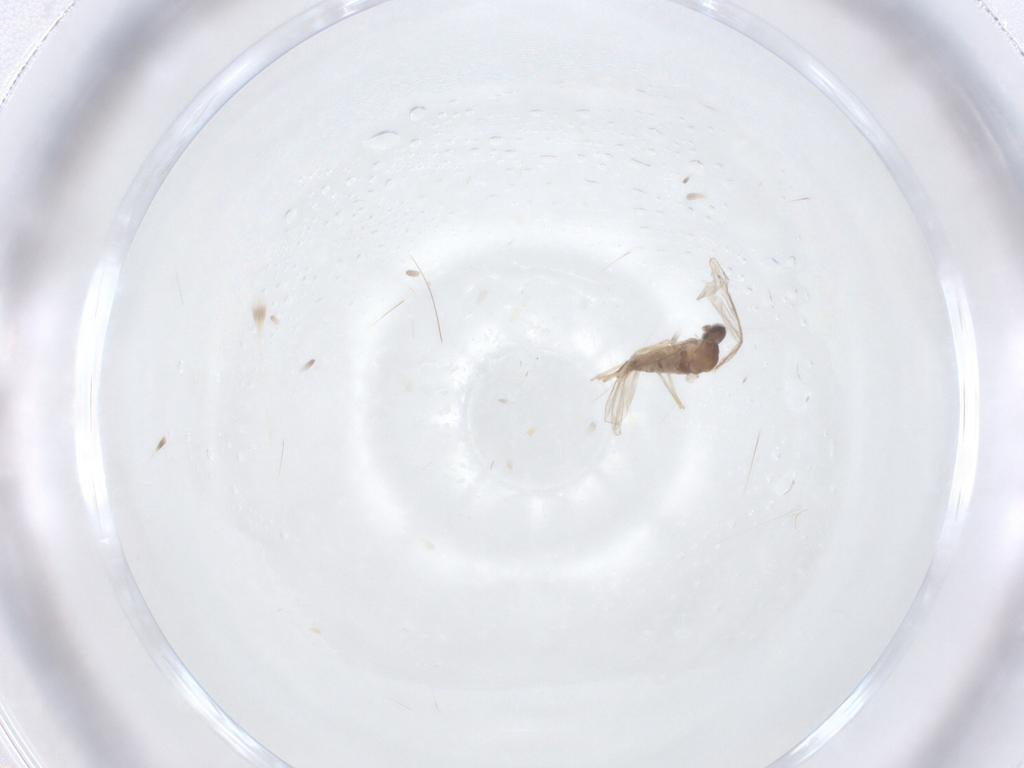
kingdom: Animalia
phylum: Arthropoda
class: Insecta
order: Diptera
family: Cecidomyiidae
